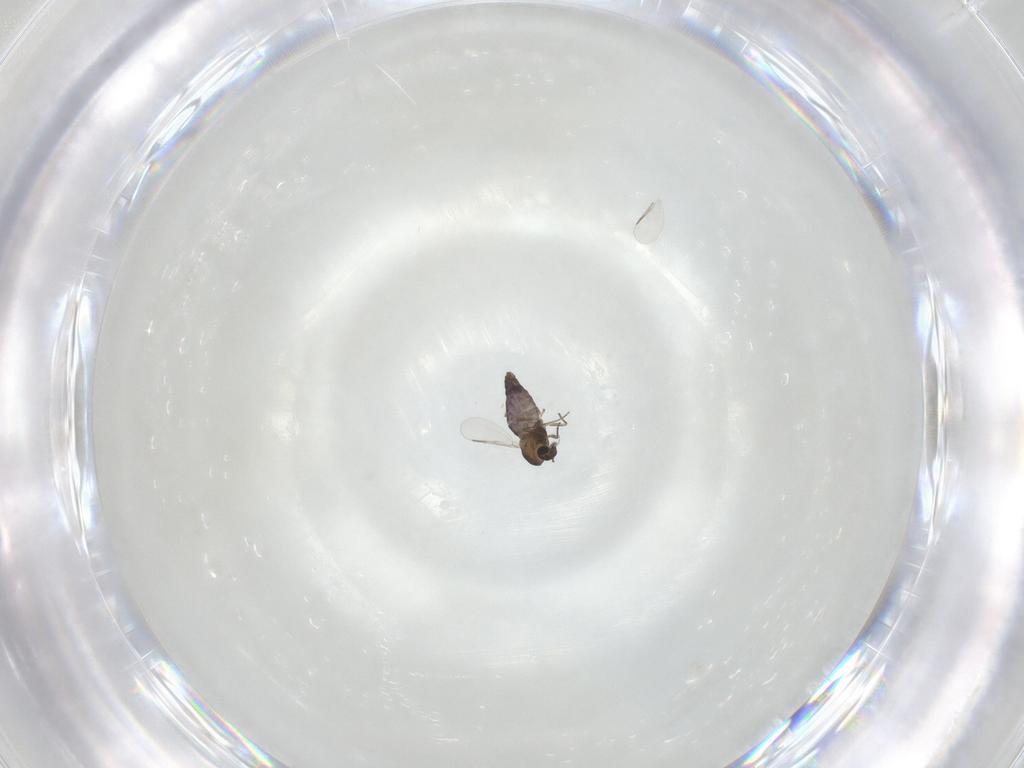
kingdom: Animalia
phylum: Arthropoda
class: Insecta
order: Diptera
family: Chironomidae
